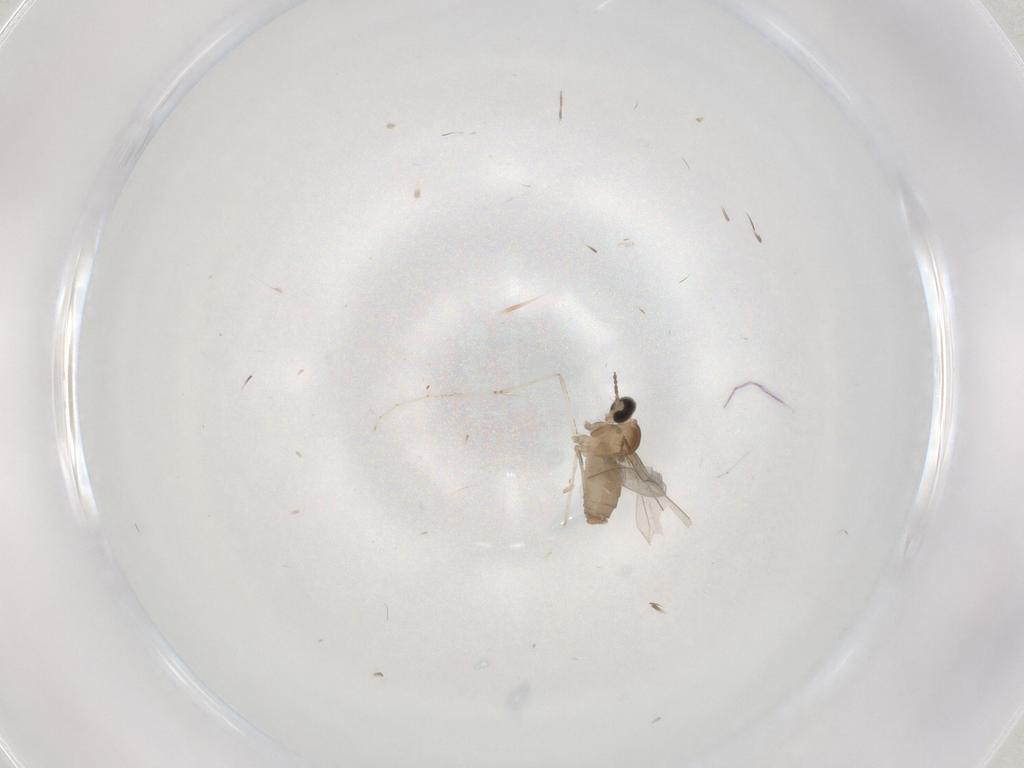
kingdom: Animalia
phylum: Arthropoda
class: Insecta
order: Diptera
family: Cecidomyiidae
